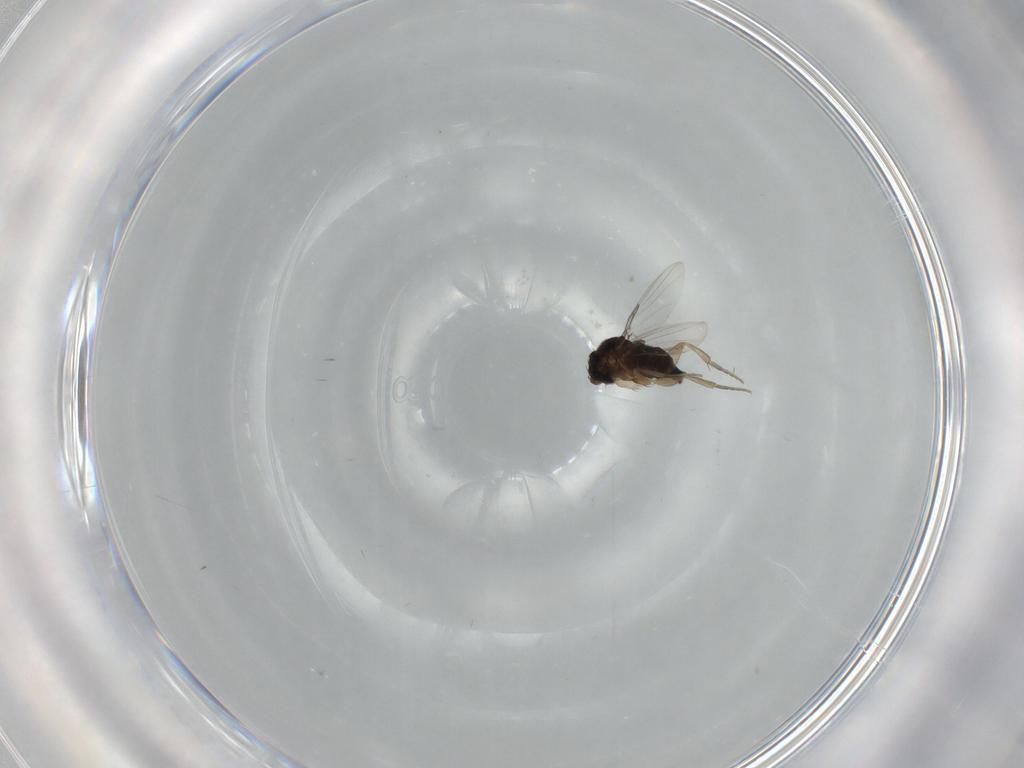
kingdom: Animalia
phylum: Arthropoda
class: Insecta
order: Diptera
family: Phoridae
